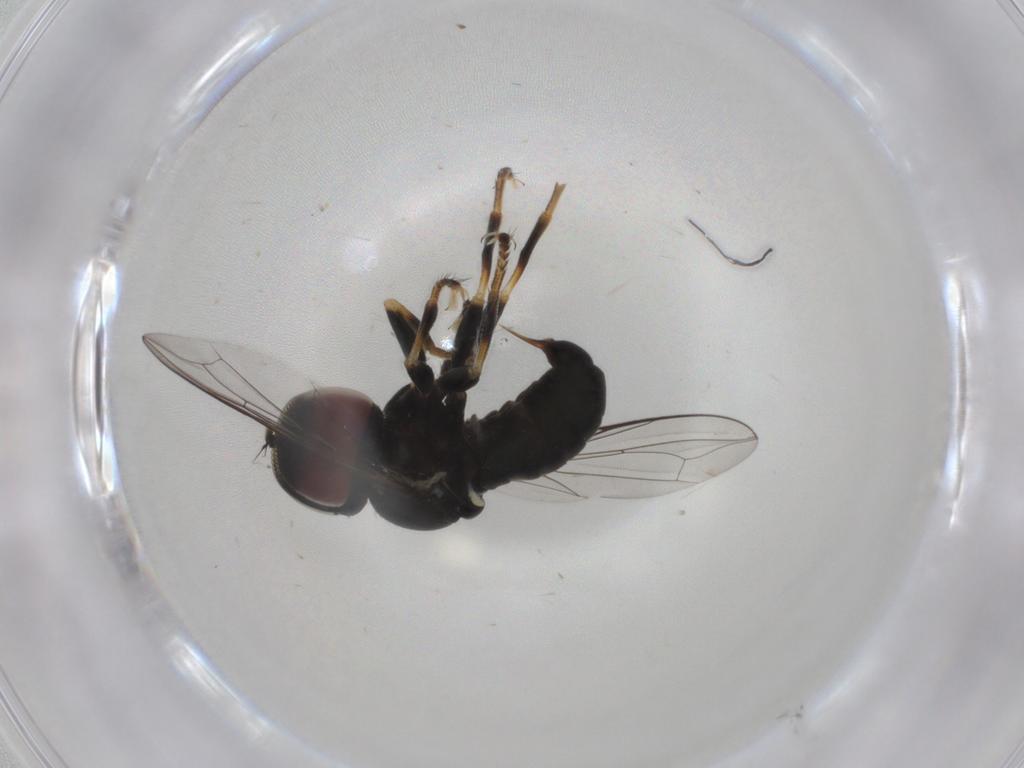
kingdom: Animalia
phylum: Arthropoda
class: Insecta
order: Diptera
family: Pipunculidae
